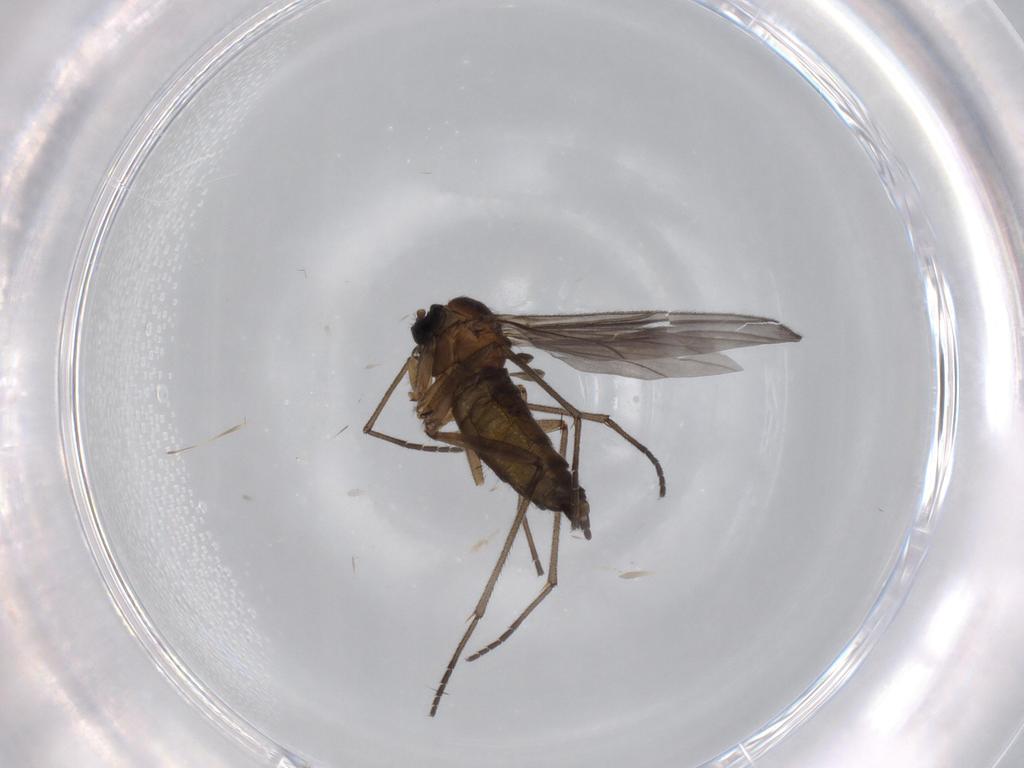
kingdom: Animalia
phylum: Arthropoda
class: Insecta
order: Diptera
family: Sciaridae
